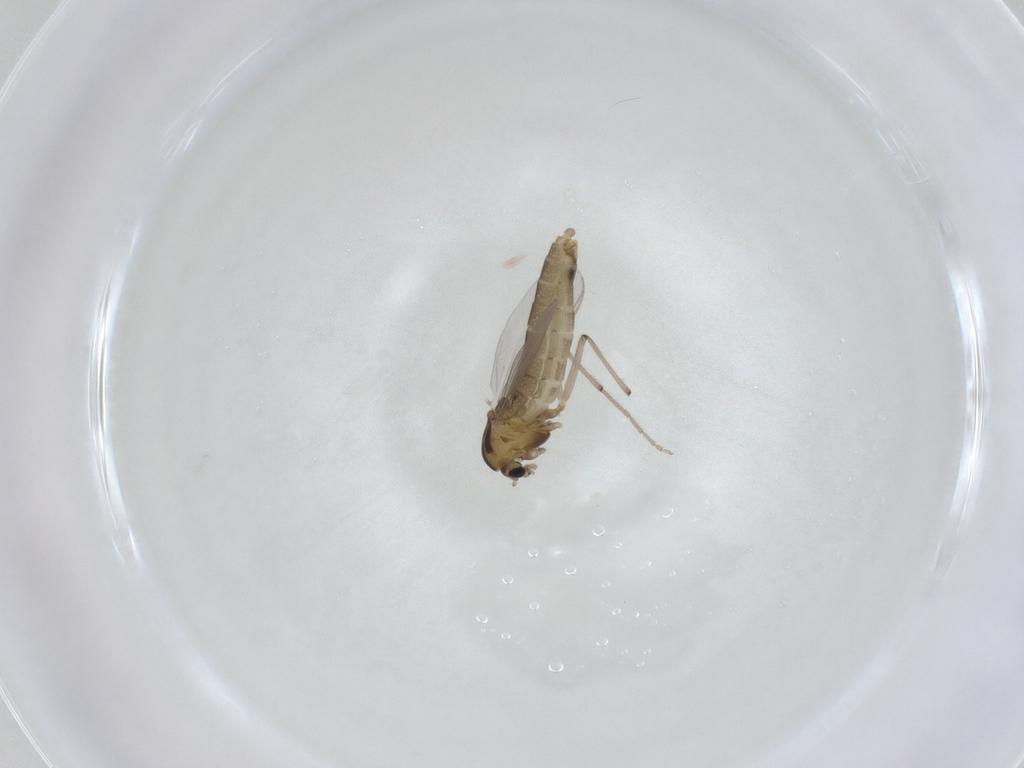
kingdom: Animalia
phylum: Arthropoda
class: Insecta
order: Diptera
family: Chironomidae
